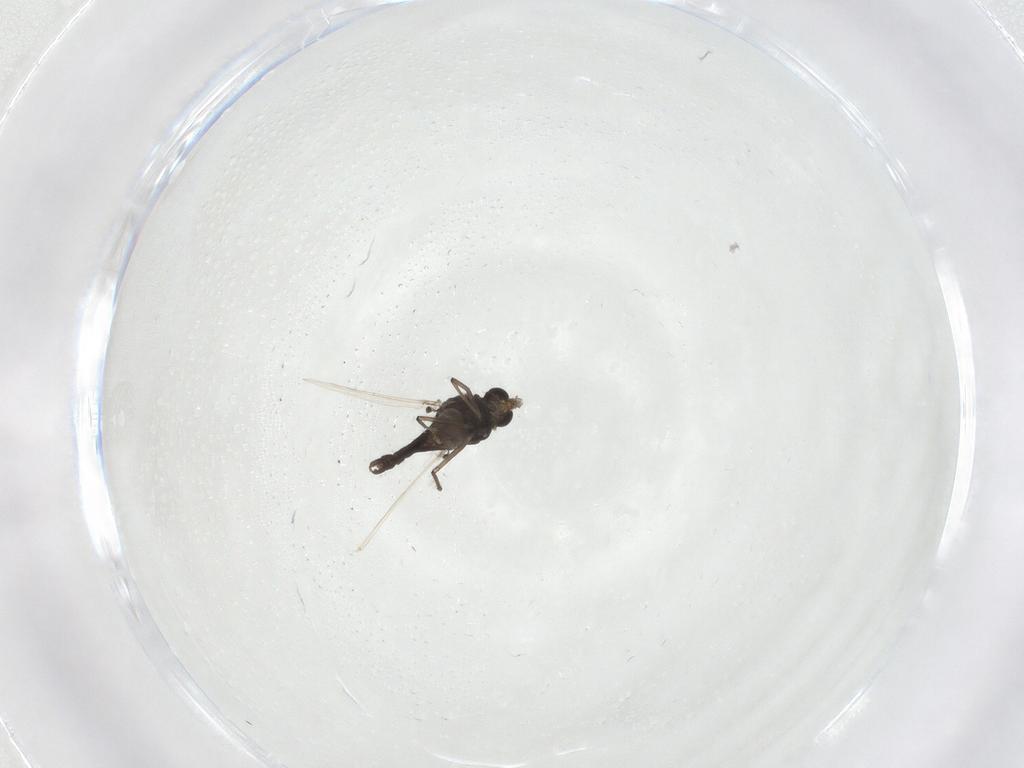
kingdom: Animalia
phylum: Arthropoda
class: Insecta
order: Diptera
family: Chironomidae
